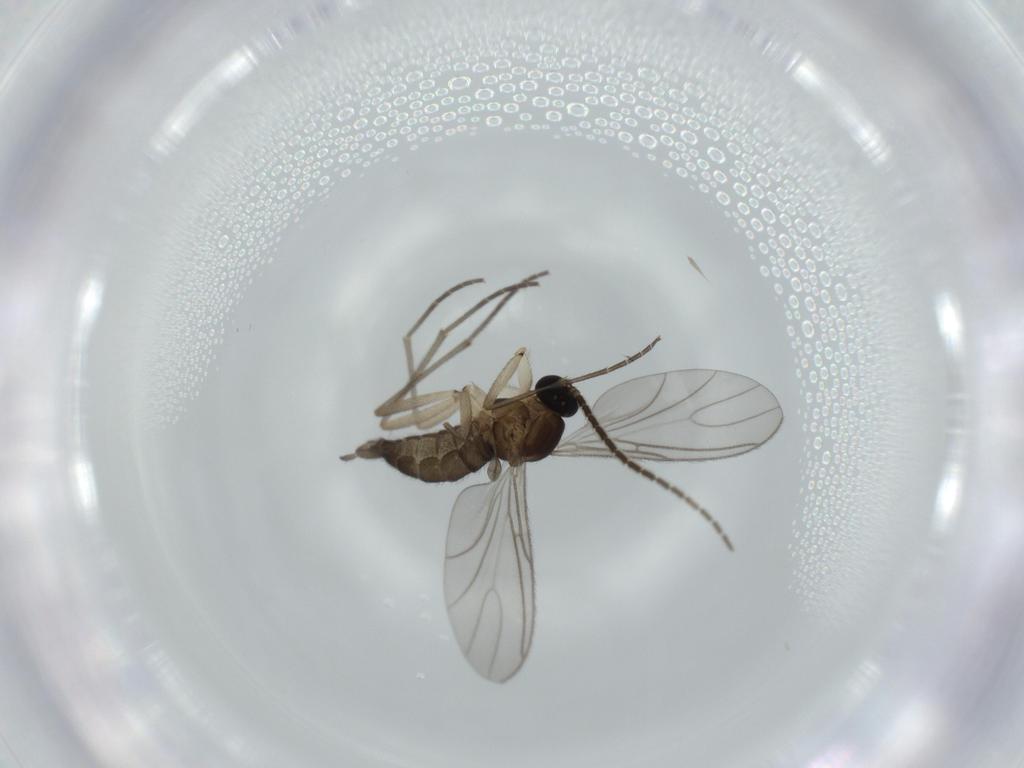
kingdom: Animalia
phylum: Arthropoda
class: Insecta
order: Diptera
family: Sciaridae
